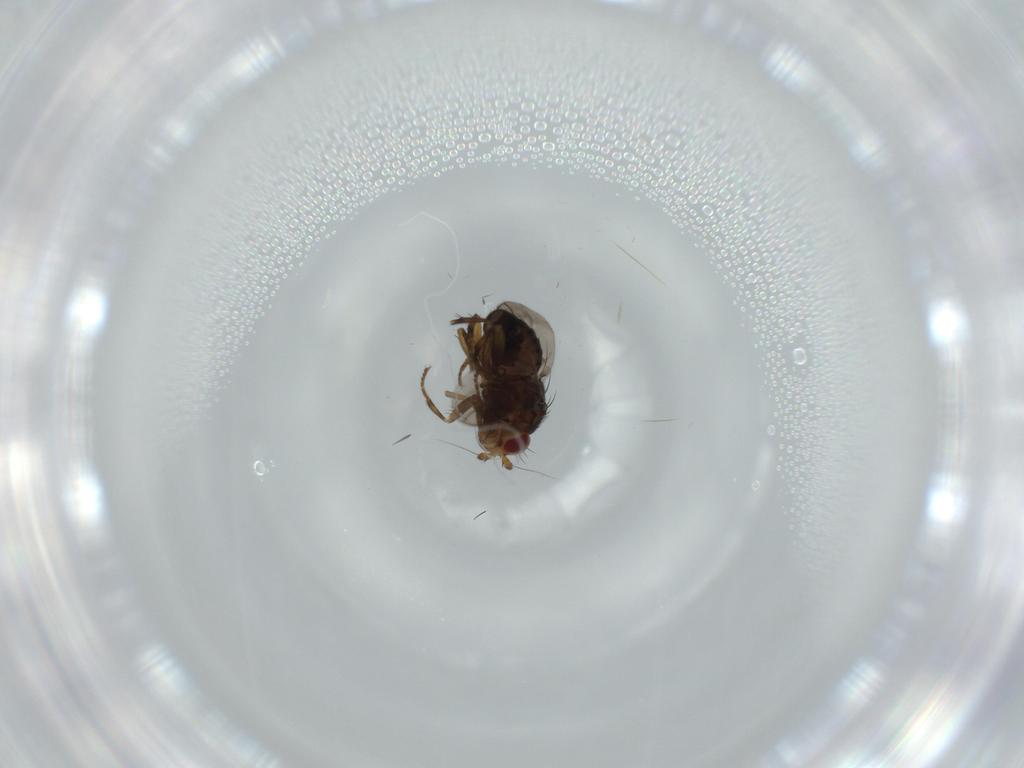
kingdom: Animalia
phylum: Arthropoda
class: Insecta
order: Diptera
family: Sphaeroceridae
